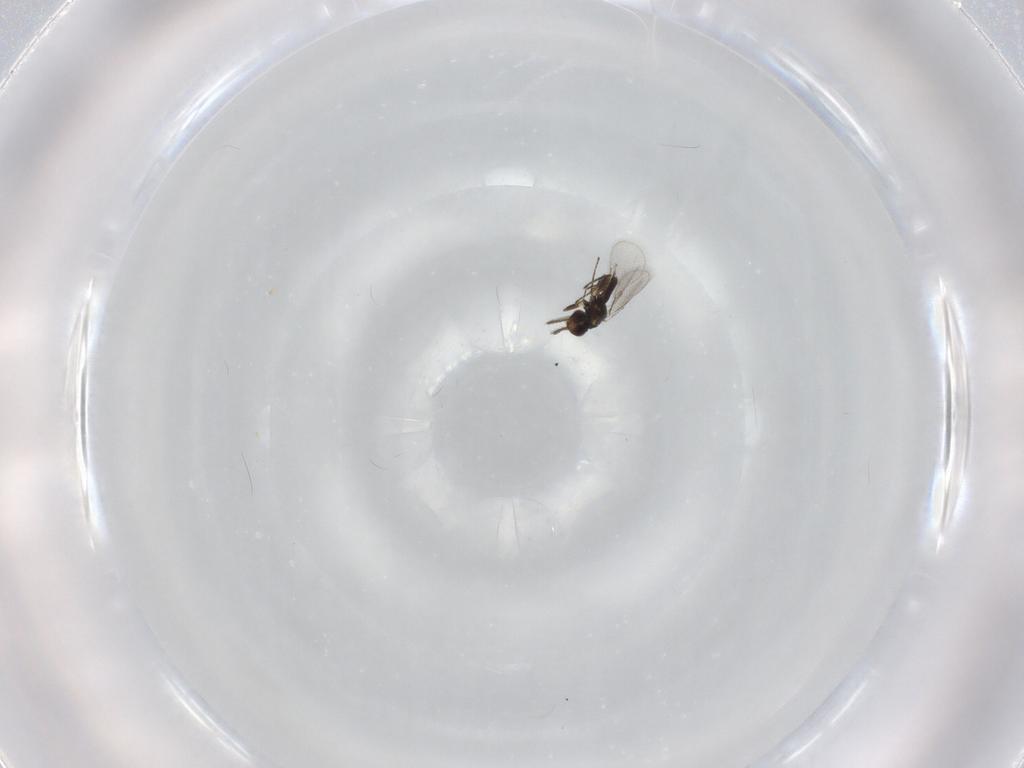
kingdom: Animalia
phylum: Arthropoda
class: Insecta
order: Hymenoptera
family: Eulophidae
